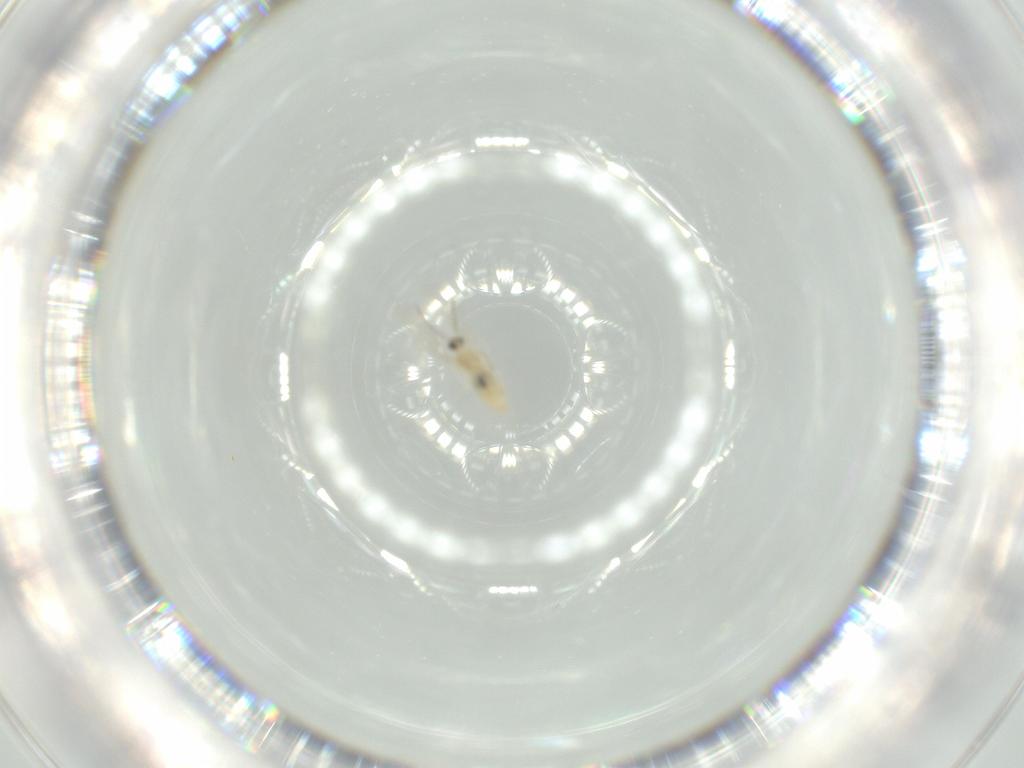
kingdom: Animalia
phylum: Arthropoda
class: Insecta
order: Diptera
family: Cecidomyiidae
